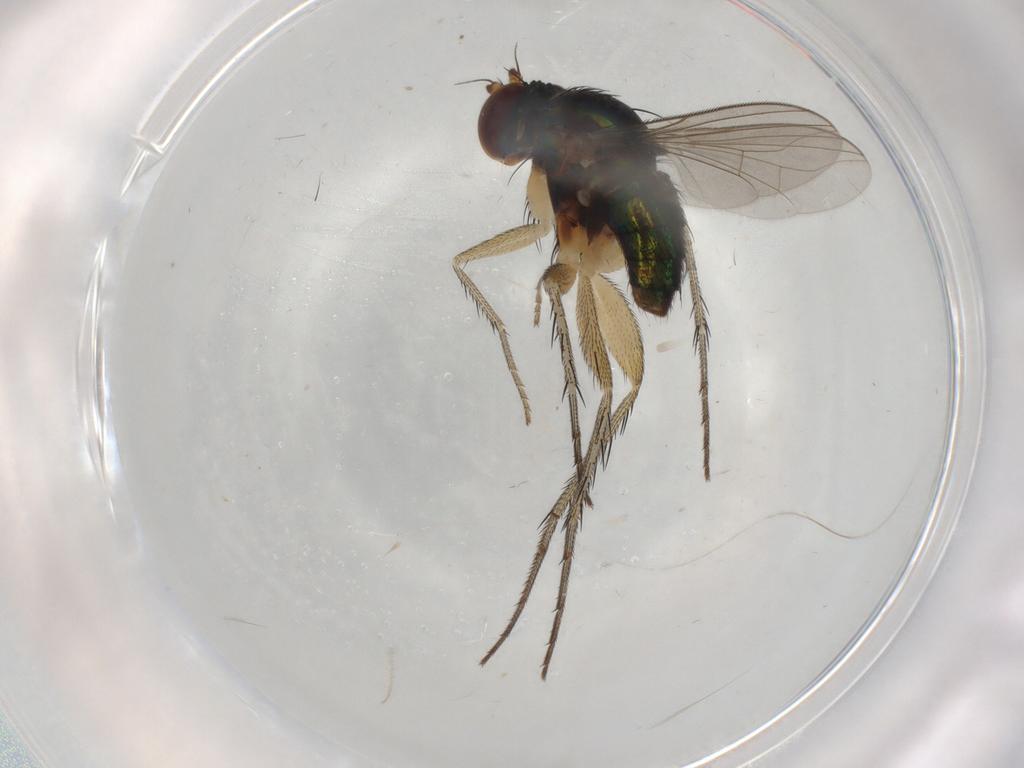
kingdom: Animalia
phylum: Arthropoda
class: Insecta
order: Diptera
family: Dolichopodidae
